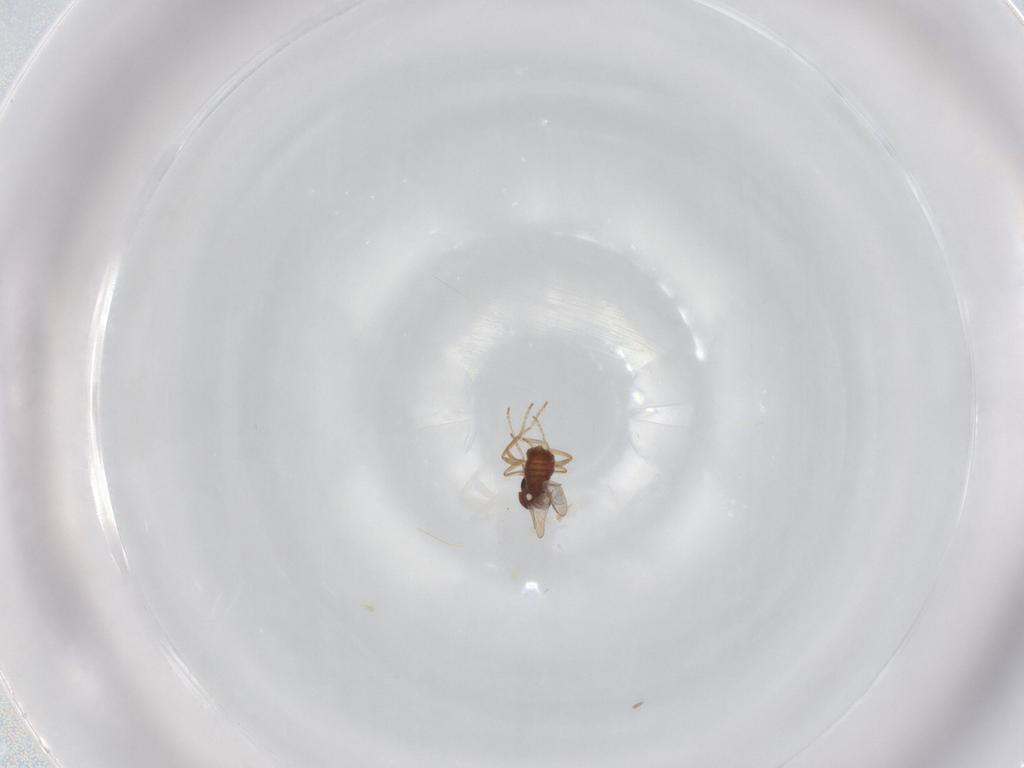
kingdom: Animalia
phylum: Arthropoda
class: Insecta
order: Diptera
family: Ceratopogonidae
